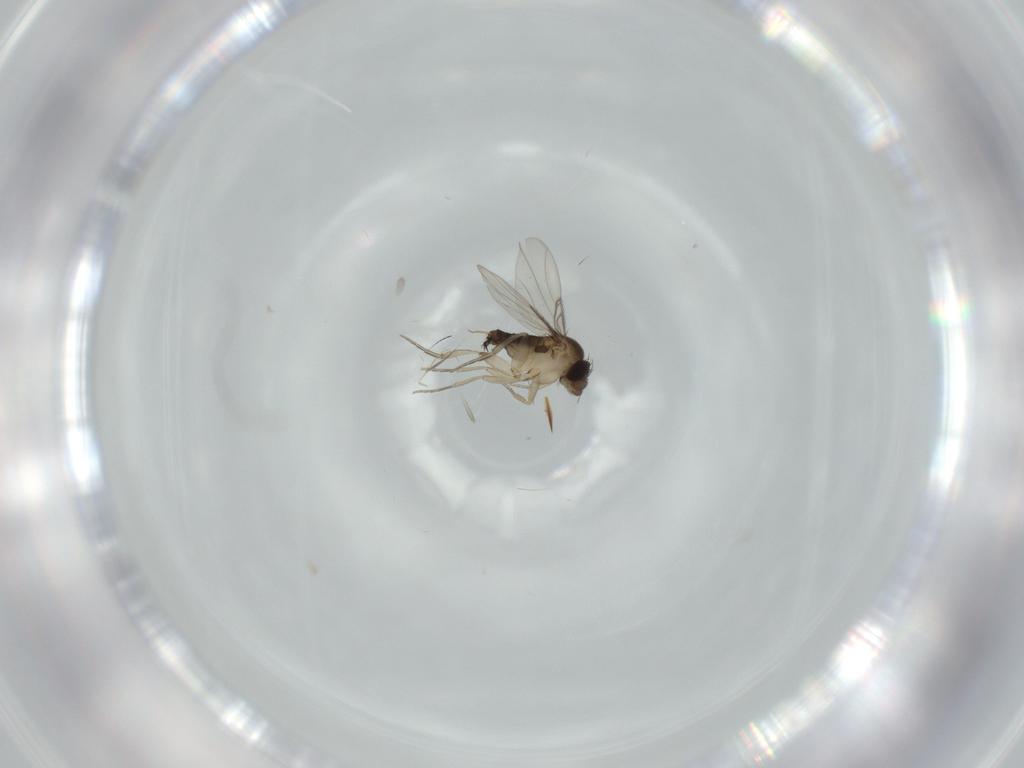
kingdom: Animalia
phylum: Arthropoda
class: Insecta
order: Diptera
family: Phoridae
